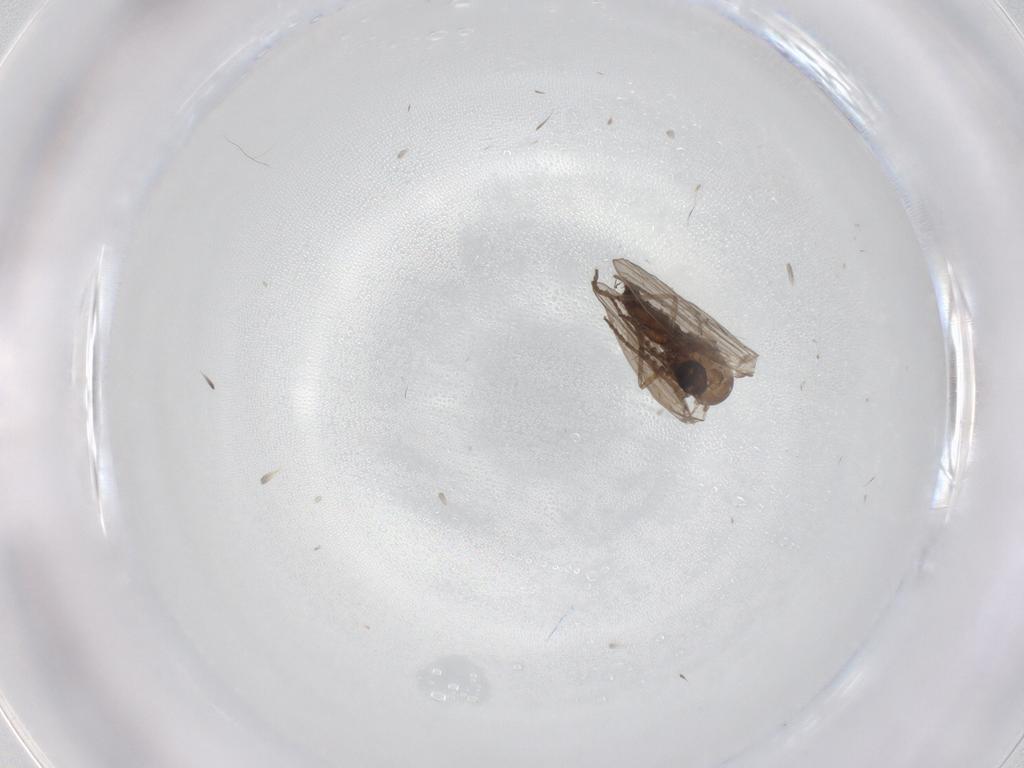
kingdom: Animalia
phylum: Arthropoda
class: Insecta
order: Diptera
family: Psychodidae
